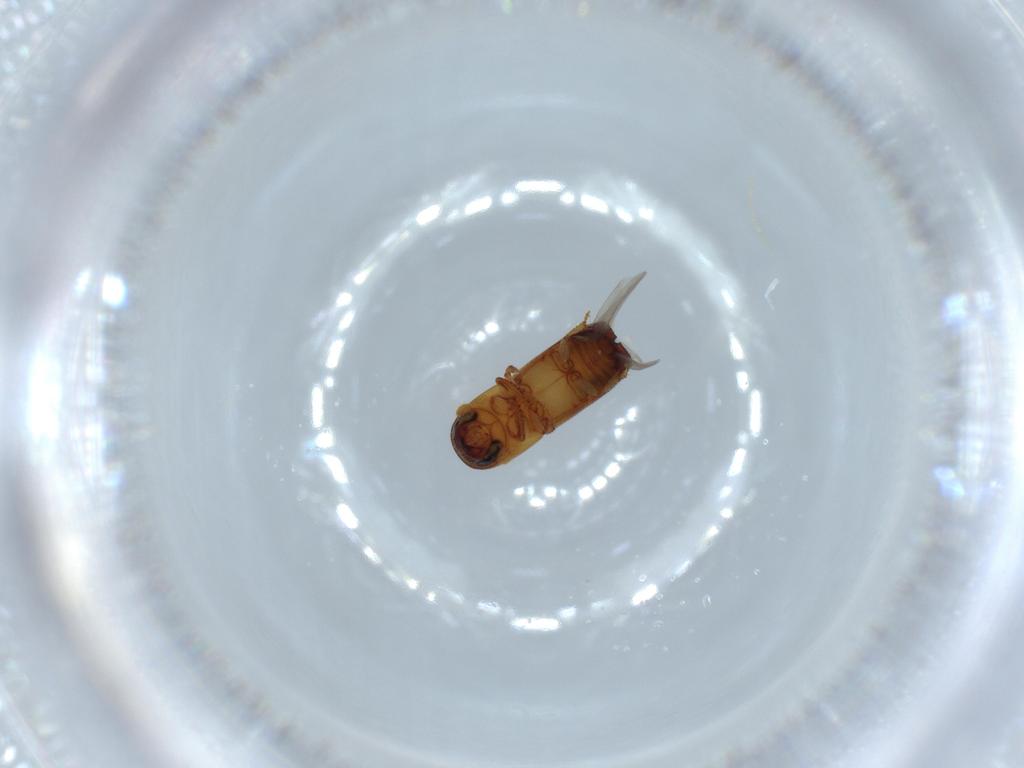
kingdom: Animalia
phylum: Arthropoda
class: Insecta
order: Coleoptera
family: Curculionidae
